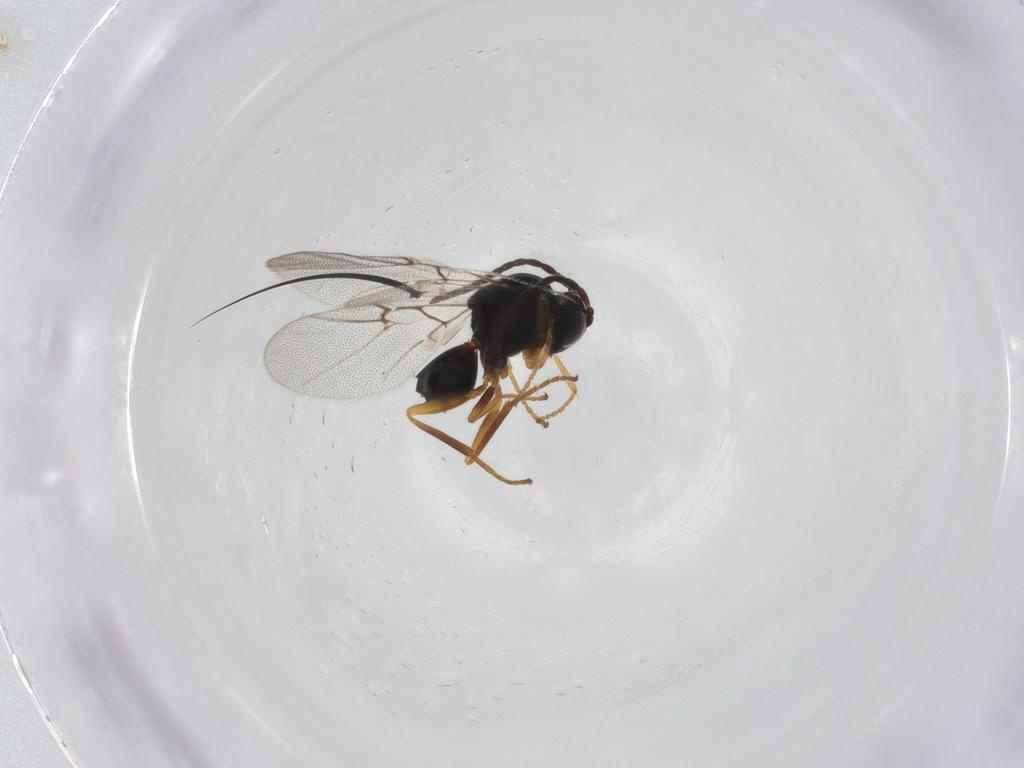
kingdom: Animalia
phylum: Arthropoda
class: Insecta
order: Hymenoptera
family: Cynipidae
